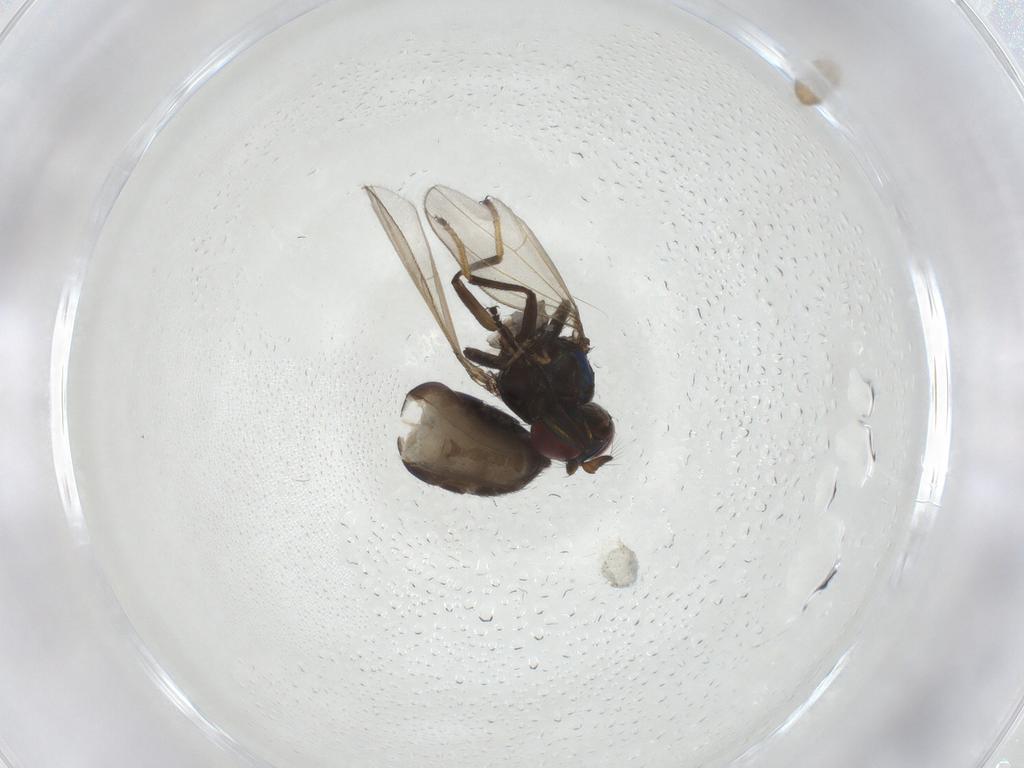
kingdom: Animalia
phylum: Arthropoda
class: Insecta
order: Diptera
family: Ephydridae
